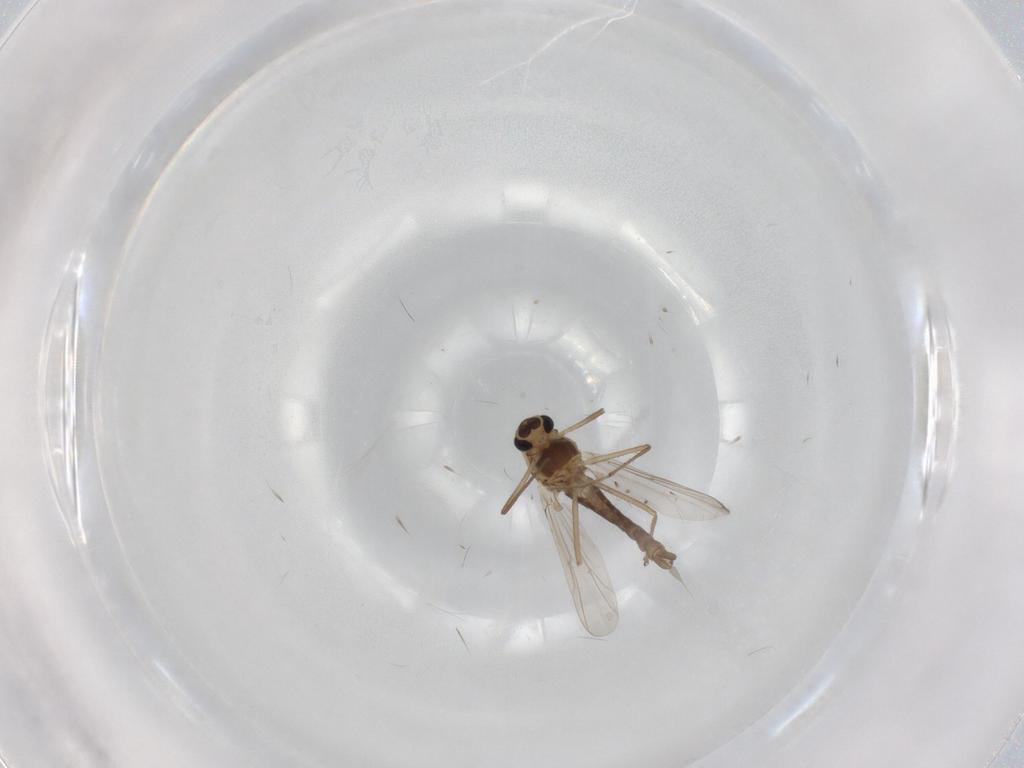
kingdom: Animalia
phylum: Arthropoda
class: Insecta
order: Diptera
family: Chironomidae
